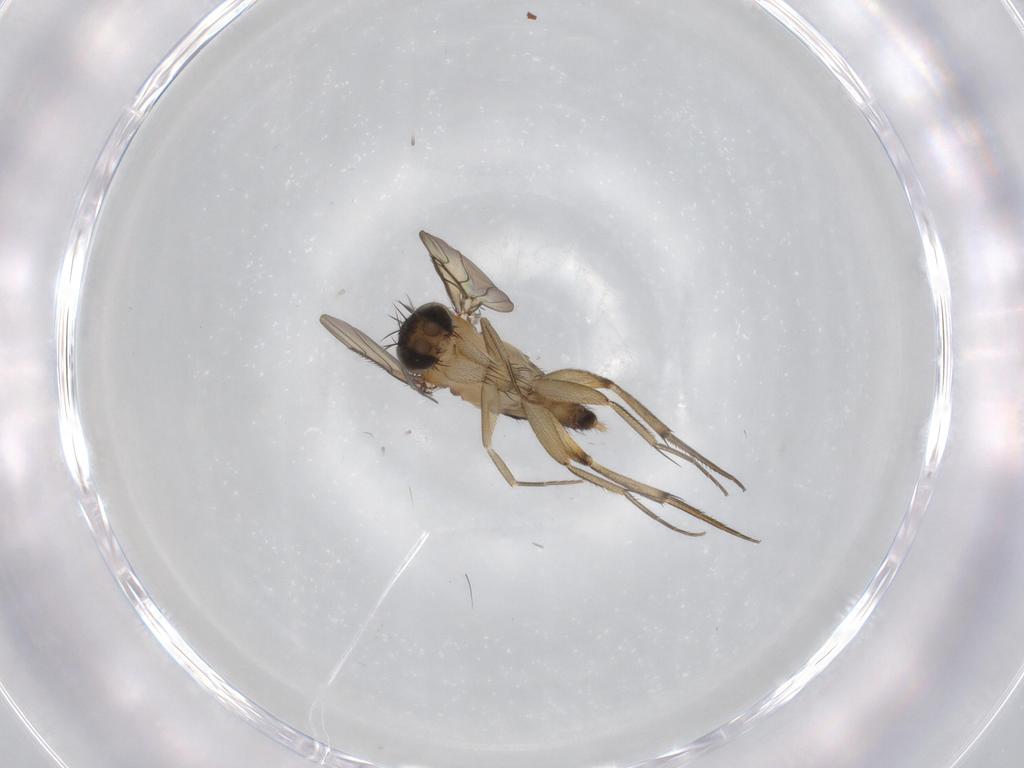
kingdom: Animalia
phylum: Arthropoda
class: Insecta
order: Diptera
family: Phoridae
